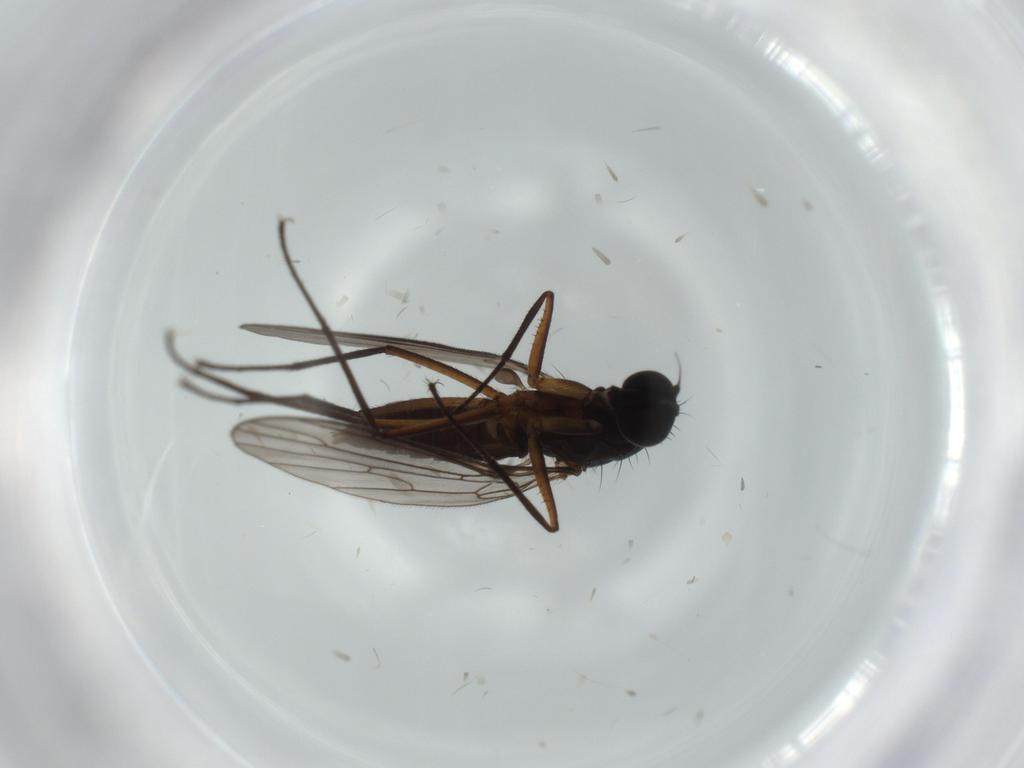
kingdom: Animalia
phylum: Arthropoda
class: Insecta
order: Diptera
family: Empididae
